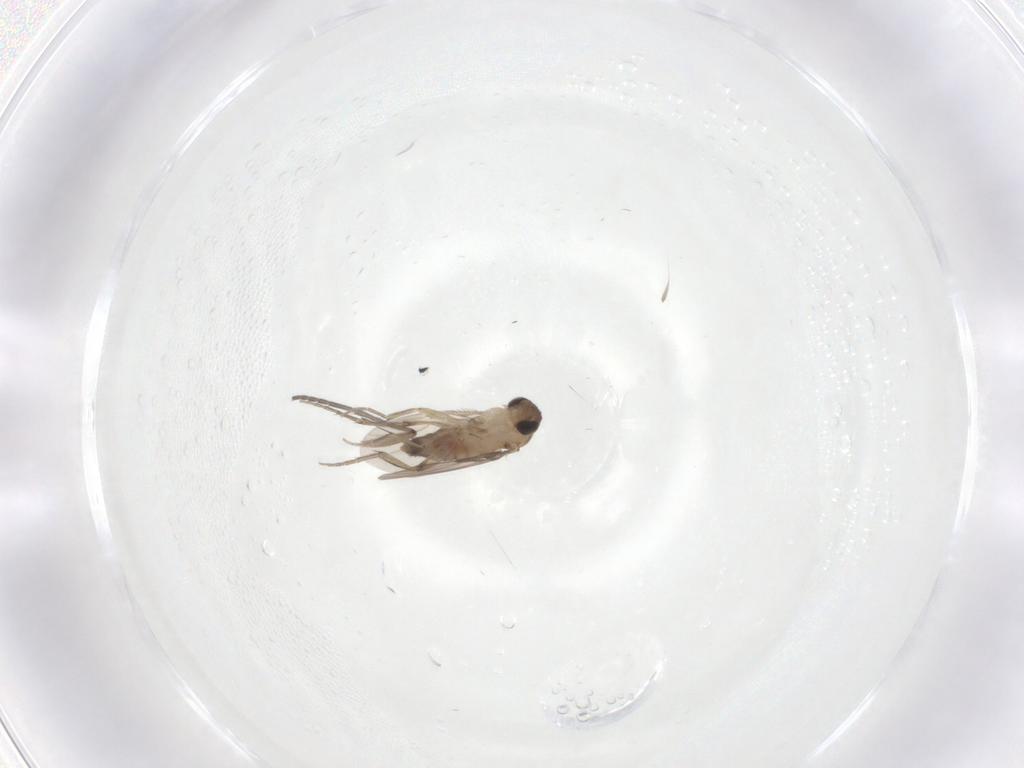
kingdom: Animalia
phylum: Arthropoda
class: Insecta
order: Diptera
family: Phoridae
